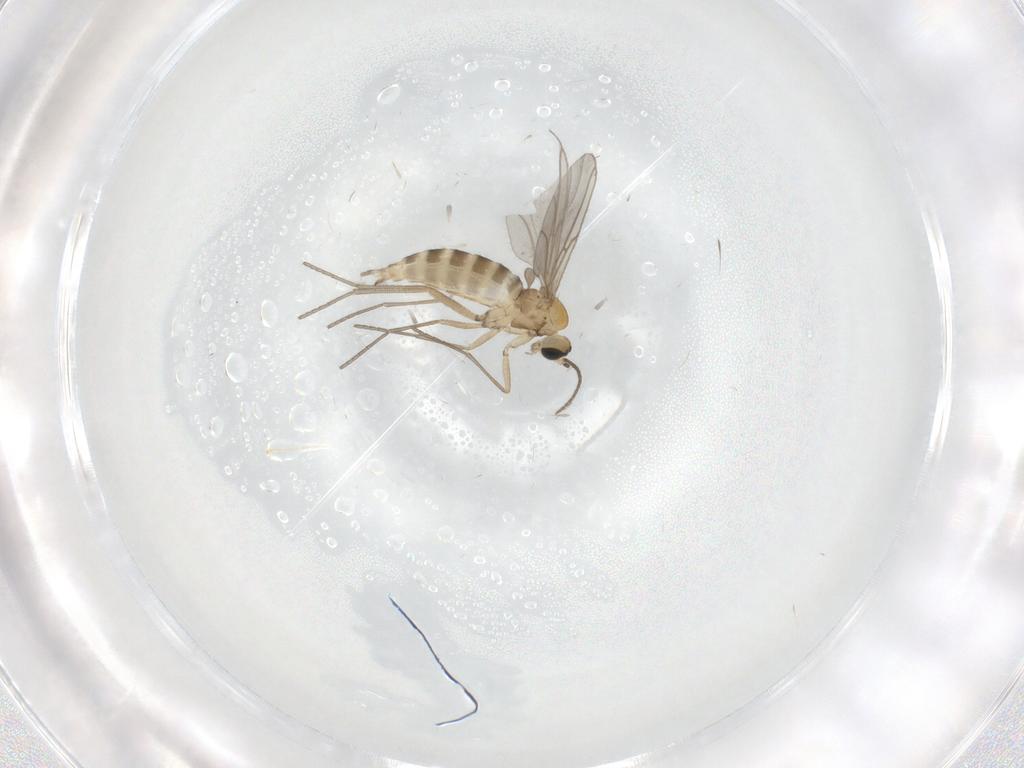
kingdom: Animalia
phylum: Arthropoda
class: Insecta
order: Diptera
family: Sciaridae
